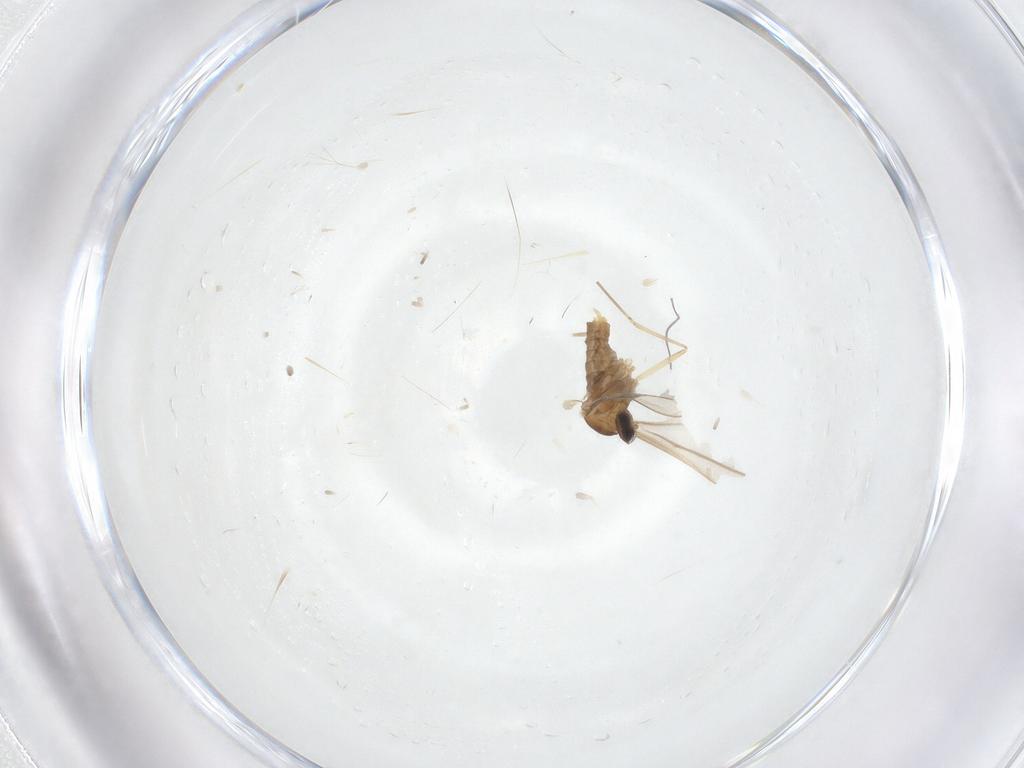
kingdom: Animalia
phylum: Arthropoda
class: Insecta
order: Diptera
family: Cecidomyiidae
